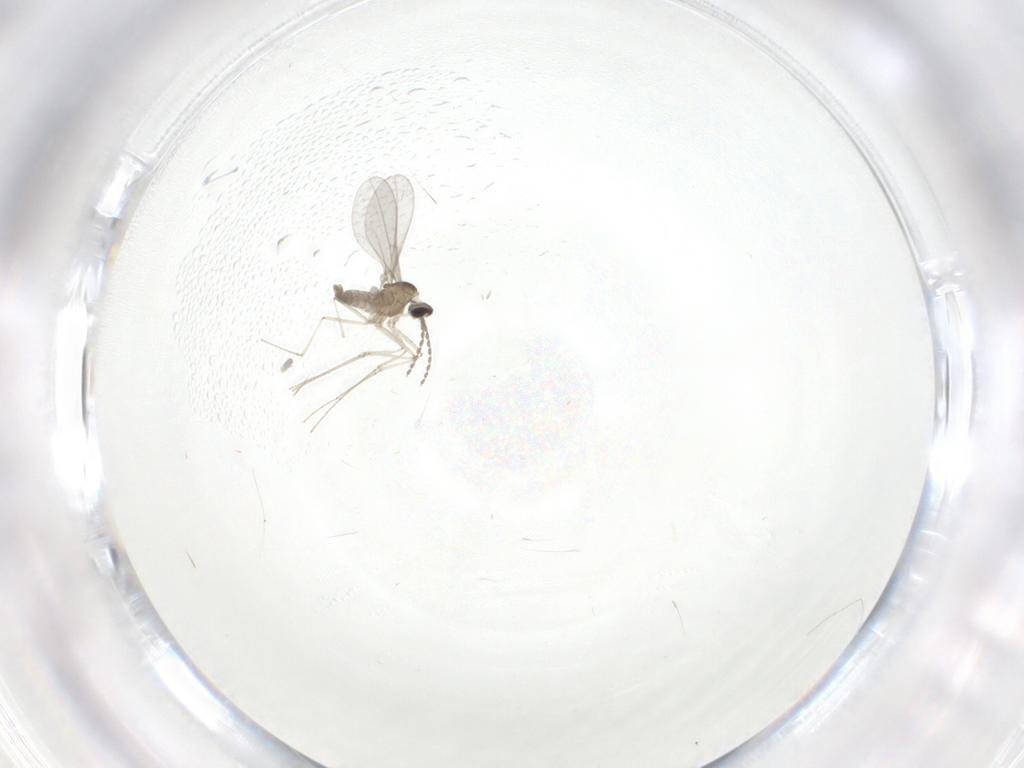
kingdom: Animalia
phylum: Arthropoda
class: Insecta
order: Diptera
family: Cecidomyiidae
